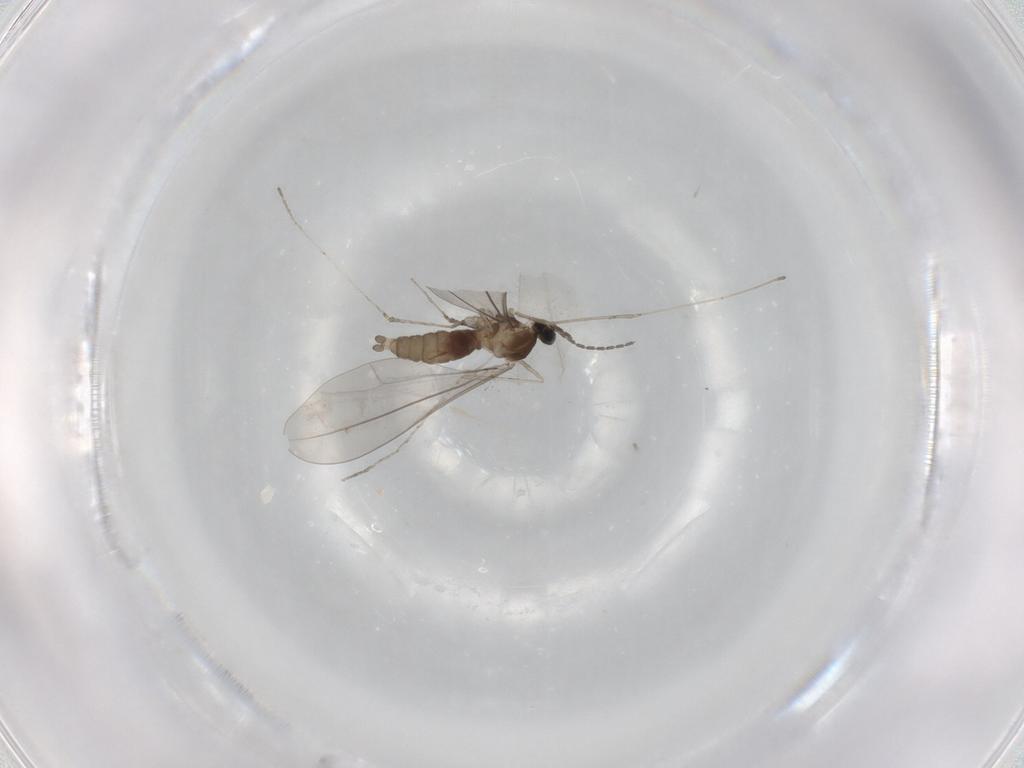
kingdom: Animalia
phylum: Arthropoda
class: Insecta
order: Diptera
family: Cecidomyiidae
